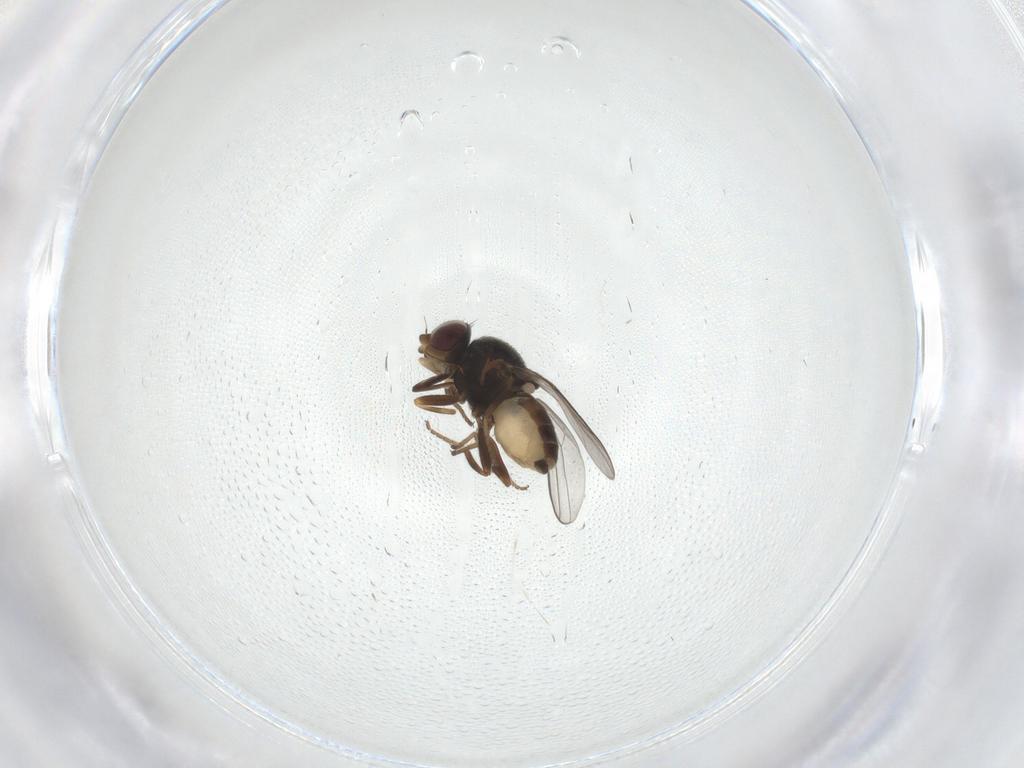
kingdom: Animalia
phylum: Arthropoda
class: Insecta
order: Diptera
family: Chloropidae
